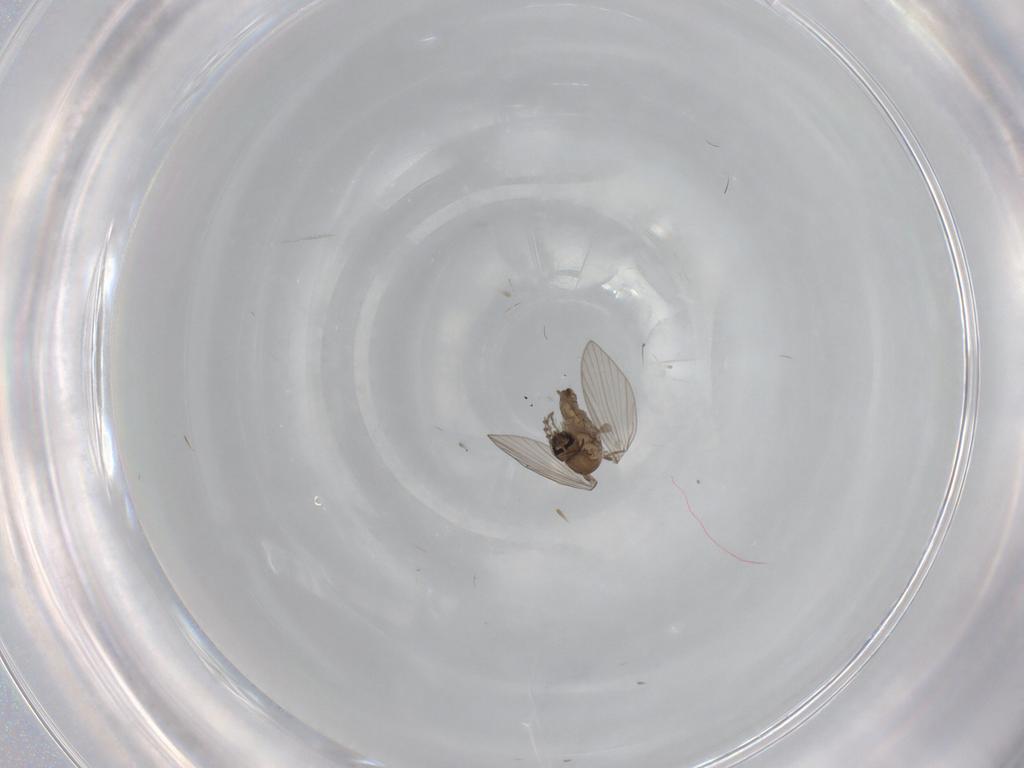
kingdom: Animalia
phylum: Arthropoda
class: Insecta
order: Diptera
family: Psychodidae
